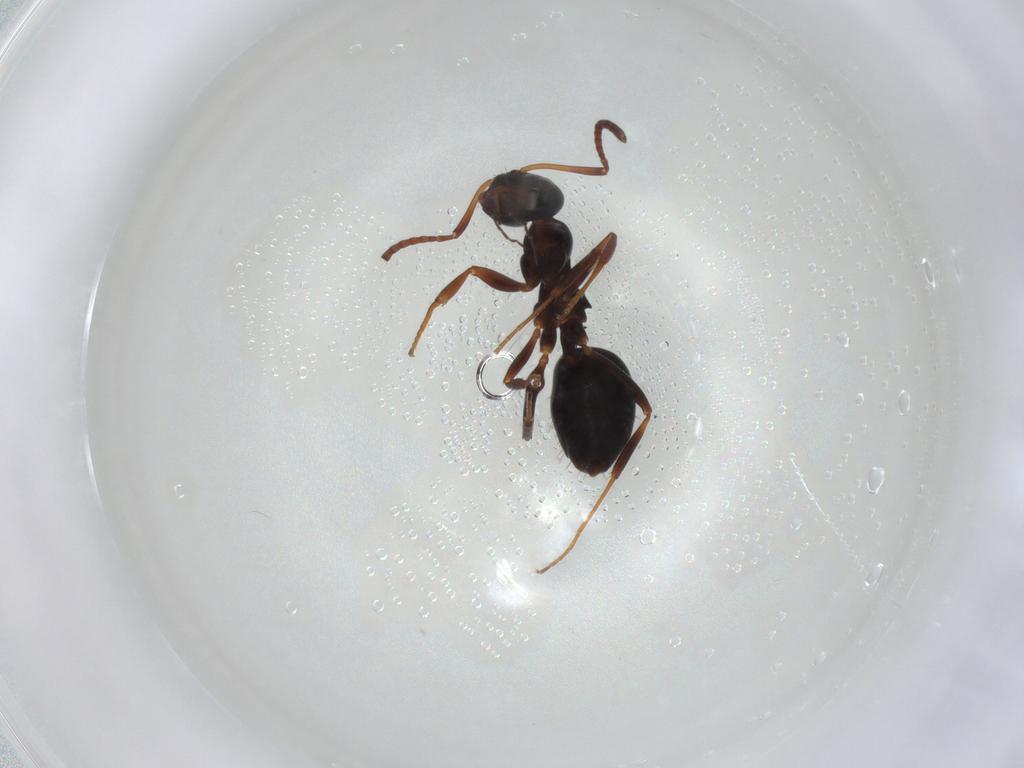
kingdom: Animalia
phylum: Arthropoda
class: Insecta
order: Hymenoptera
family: Formicidae
